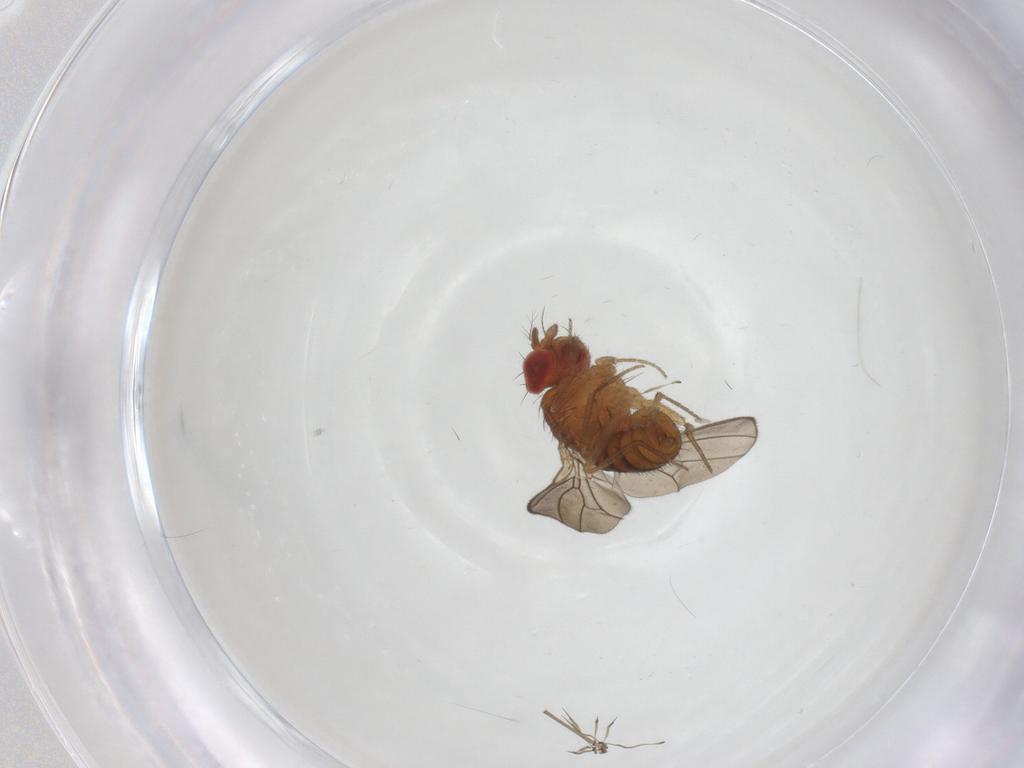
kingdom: Animalia
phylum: Arthropoda
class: Insecta
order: Diptera
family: Drosophilidae
